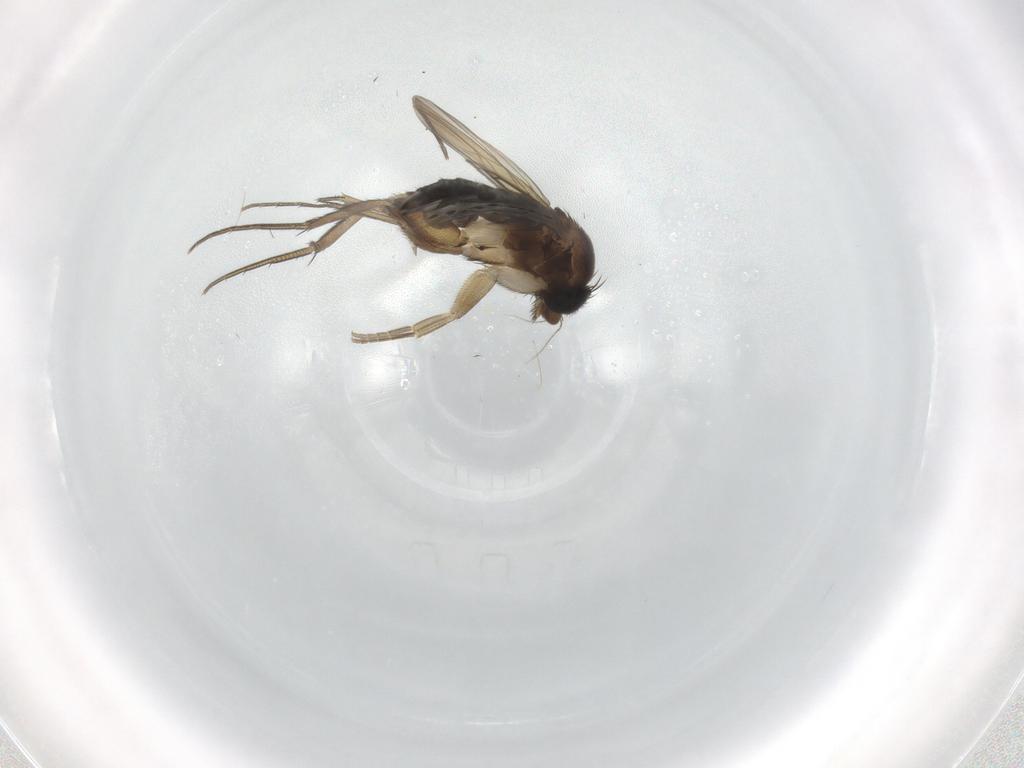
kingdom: Animalia
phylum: Arthropoda
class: Insecta
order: Diptera
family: Phoridae
